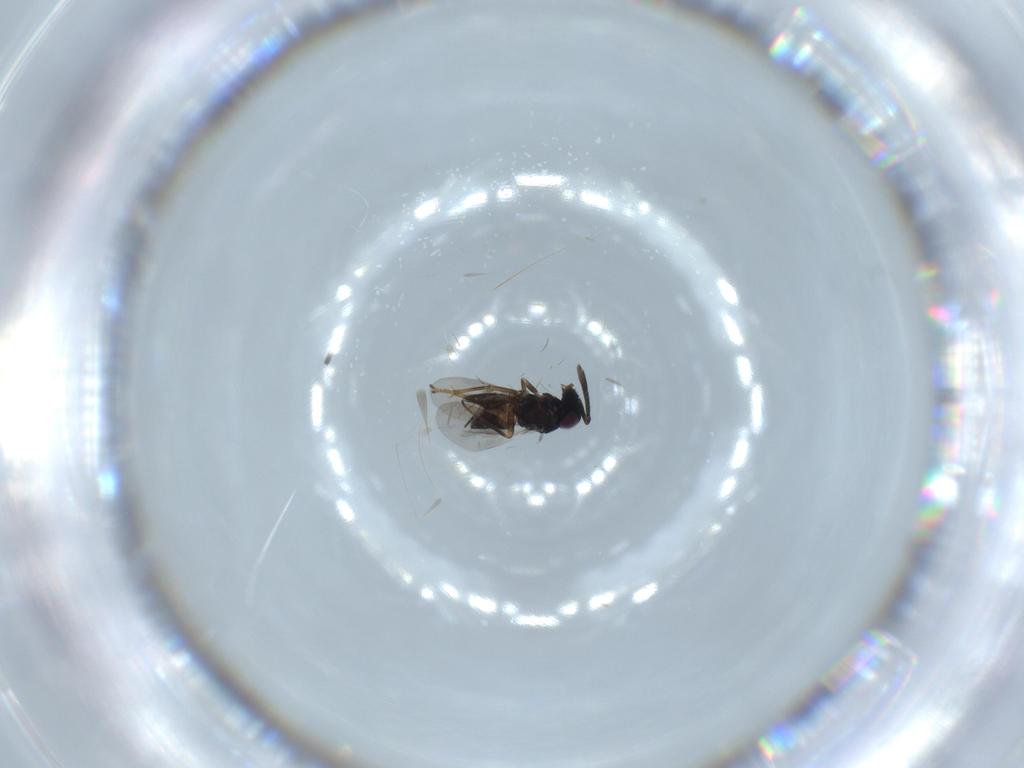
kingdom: Animalia
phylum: Arthropoda
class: Insecta
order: Hymenoptera
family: Encyrtidae
